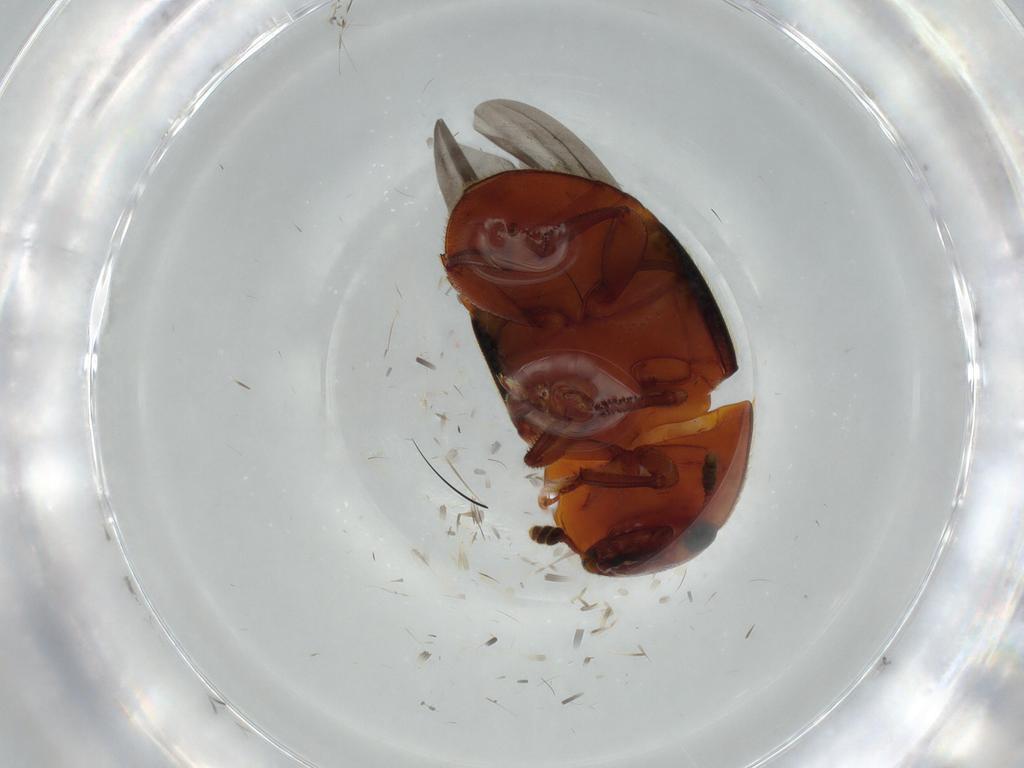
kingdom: Animalia
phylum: Arthropoda
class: Insecta
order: Coleoptera
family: Nitidulidae
